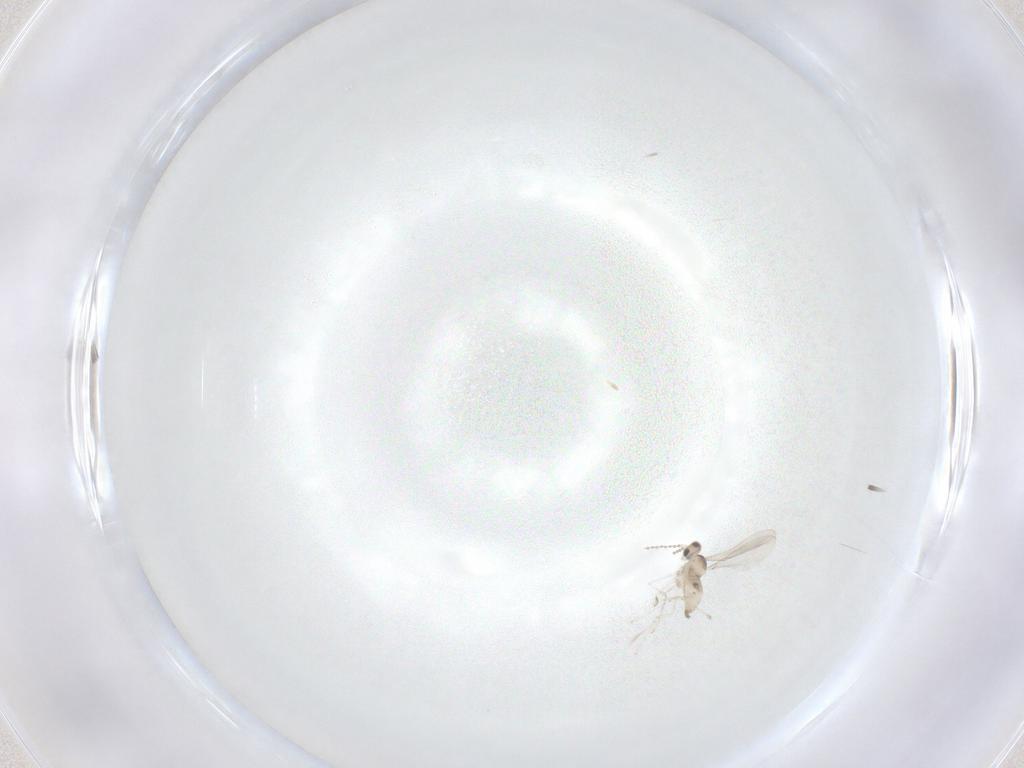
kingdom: Animalia
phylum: Arthropoda
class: Insecta
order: Diptera
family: Cecidomyiidae
